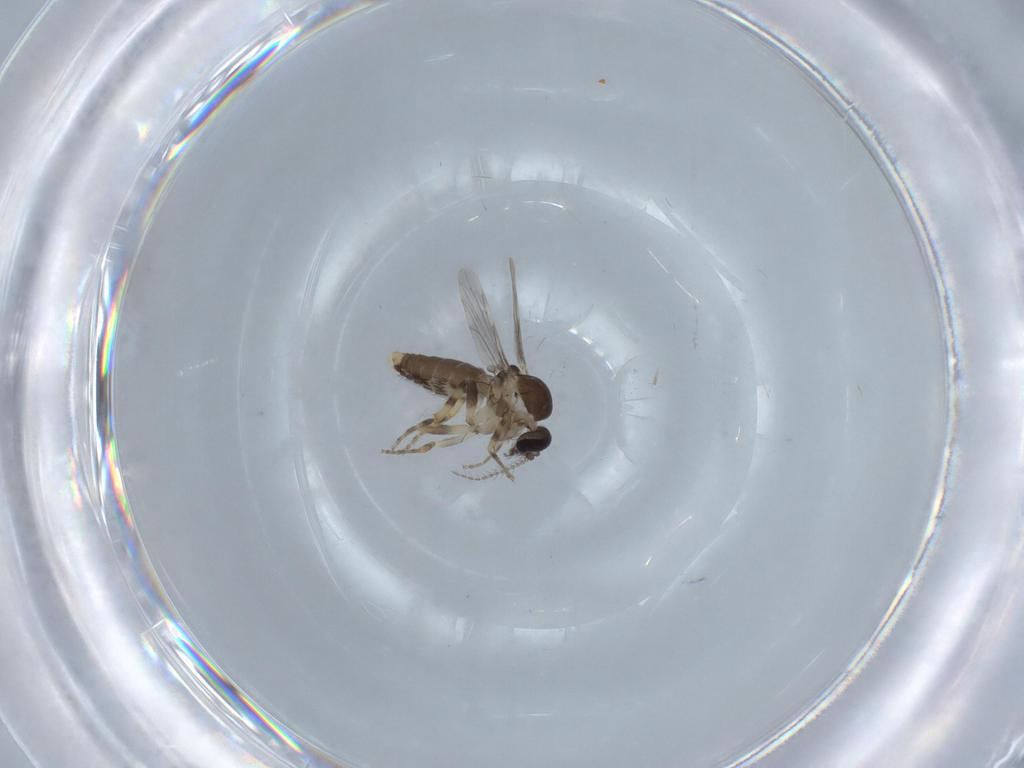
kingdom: Animalia
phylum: Arthropoda
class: Insecta
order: Diptera
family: Ceratopogonidae
